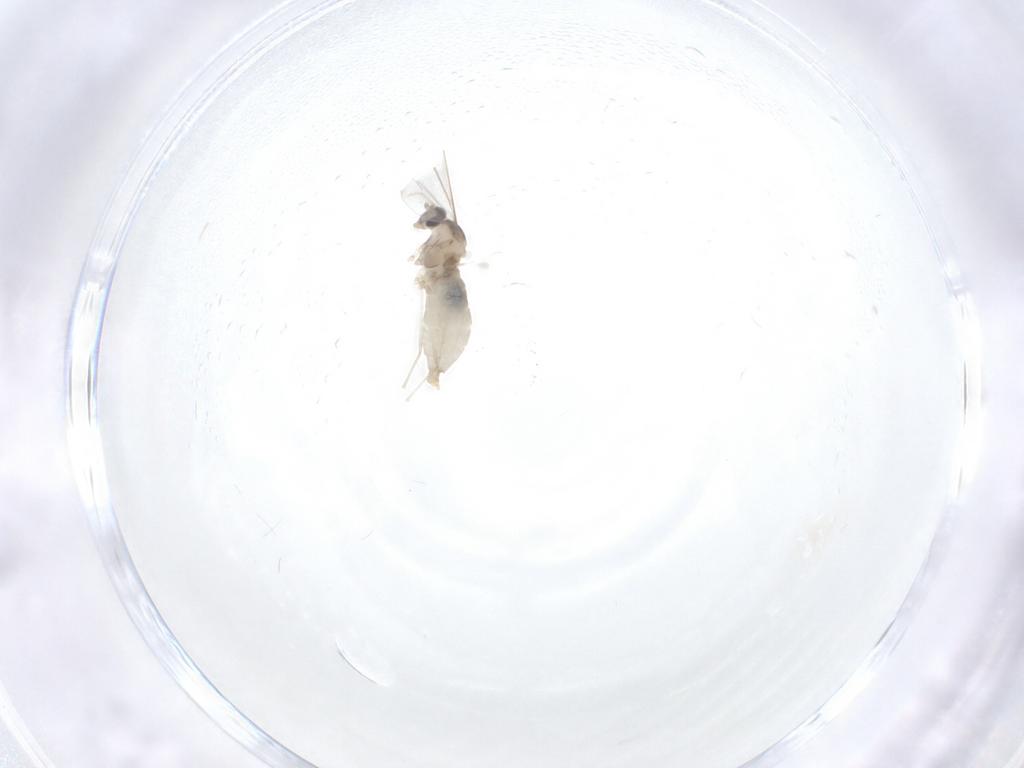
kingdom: Animalia
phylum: Arthropoda
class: Insecta
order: Diptera
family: Cecidomyiidae
